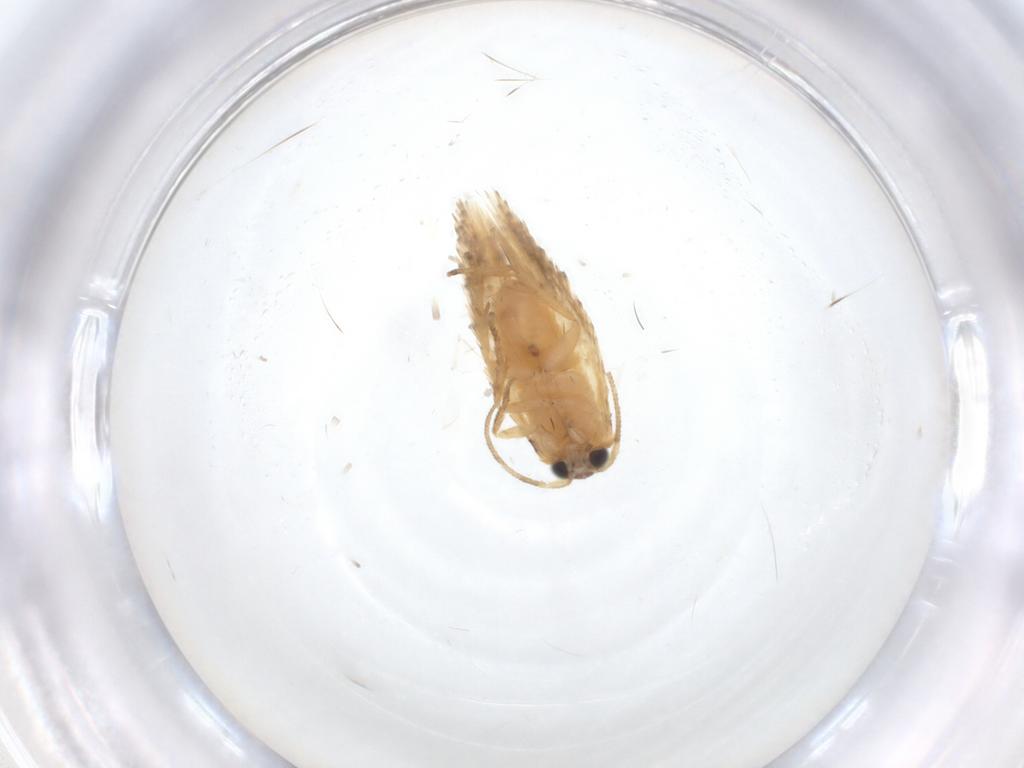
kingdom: Animalia
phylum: Arthropoda
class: Insecta
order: Lepidoptera
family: Nepticulidae
